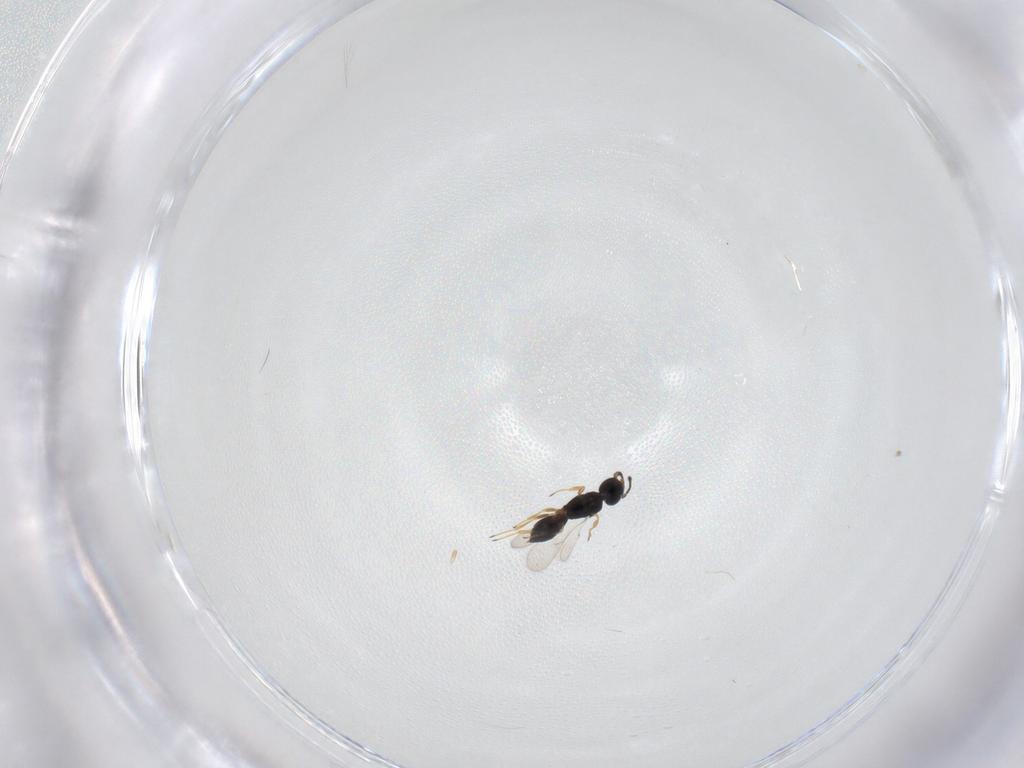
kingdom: Animalia
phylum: Arthropoda
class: Insecta
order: Hymenoptera
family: Scelionidae
